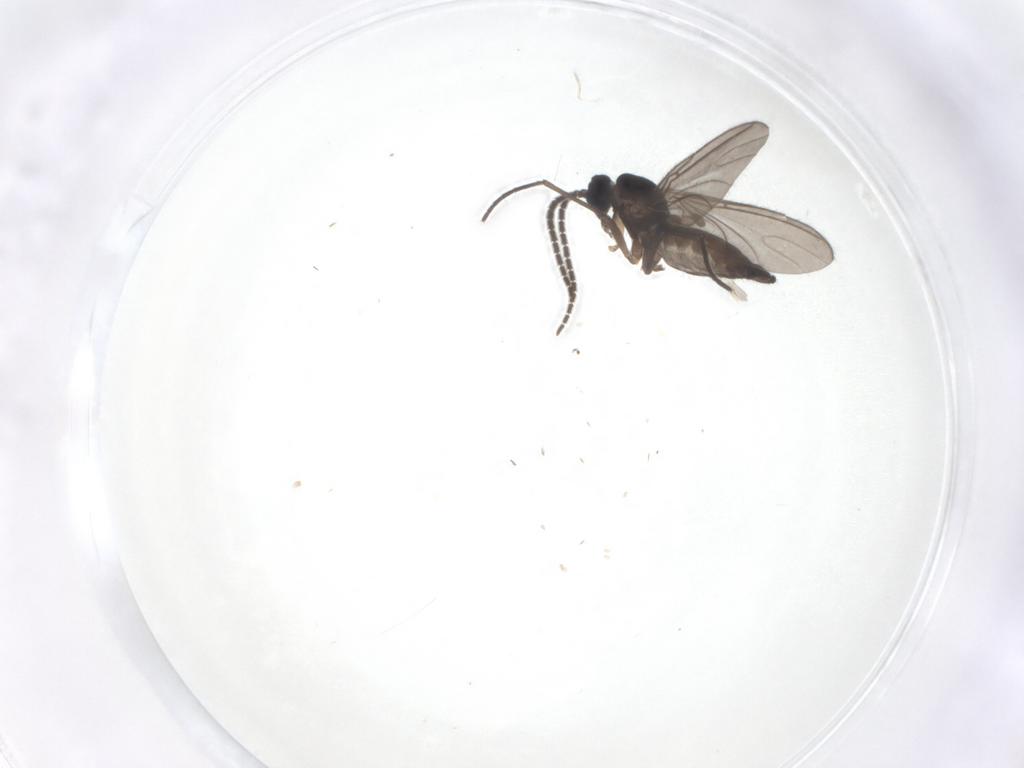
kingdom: Animalia
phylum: Arthropoda
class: Insecta
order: Diptera
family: Sciaridae
